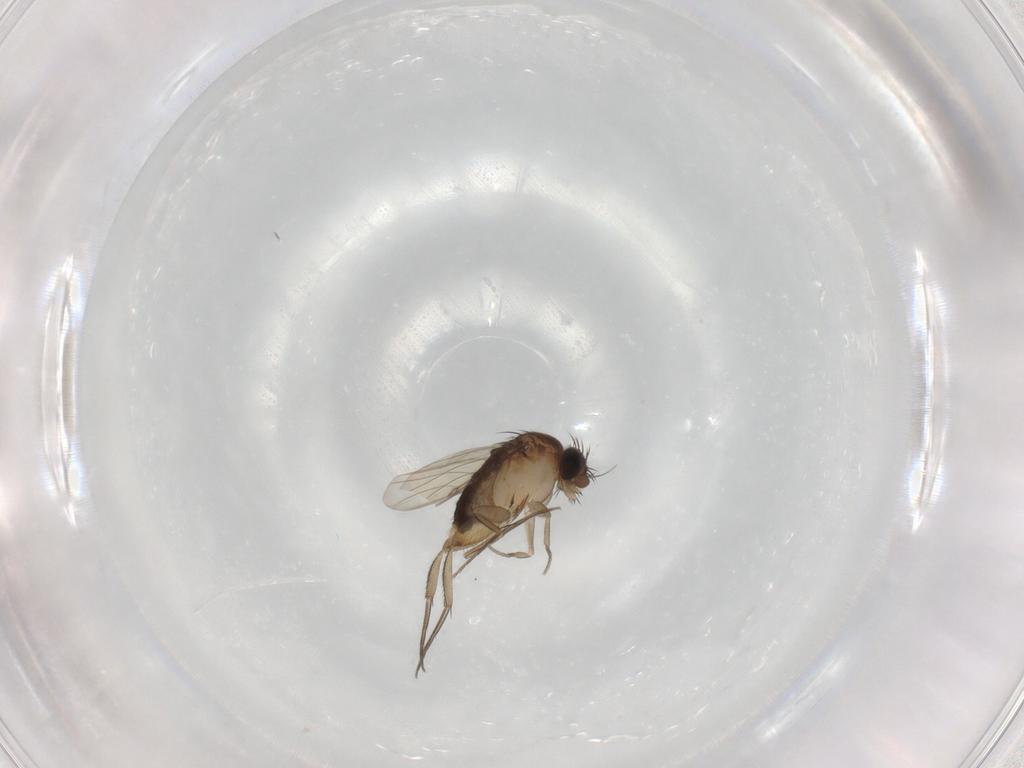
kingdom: Animalia
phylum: Arthropoda
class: Insecta
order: Diptera
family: Phoridae
